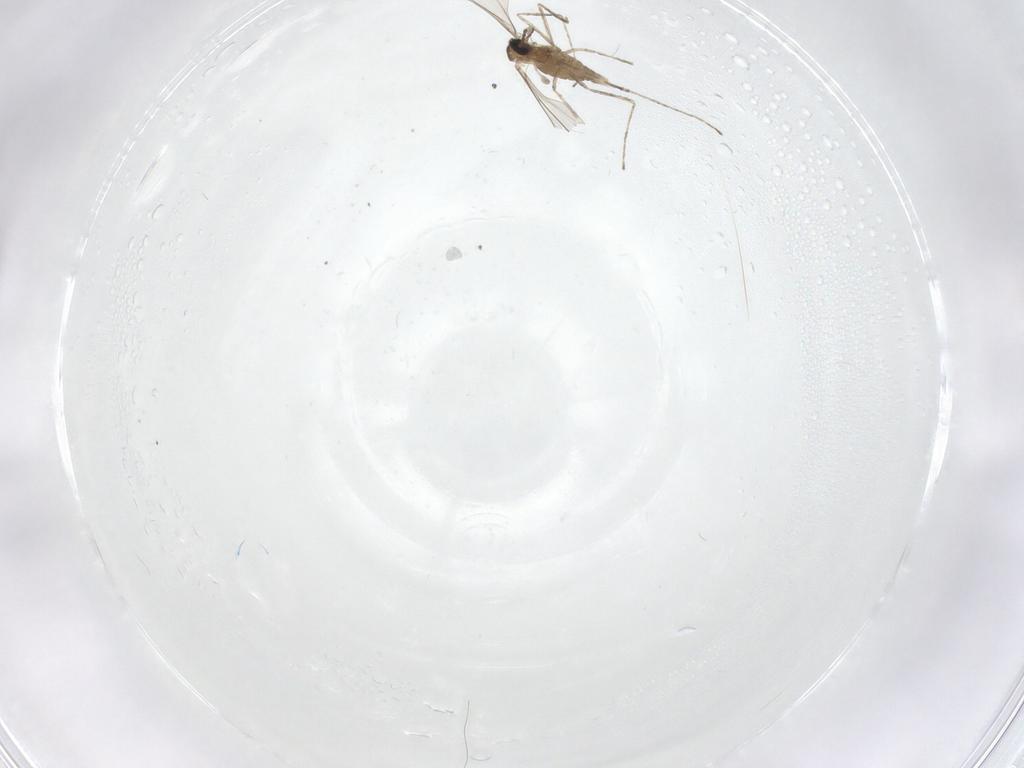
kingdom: Animalia
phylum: Arthropoda
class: Insecta
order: Diptera
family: Cecidomyiidae
